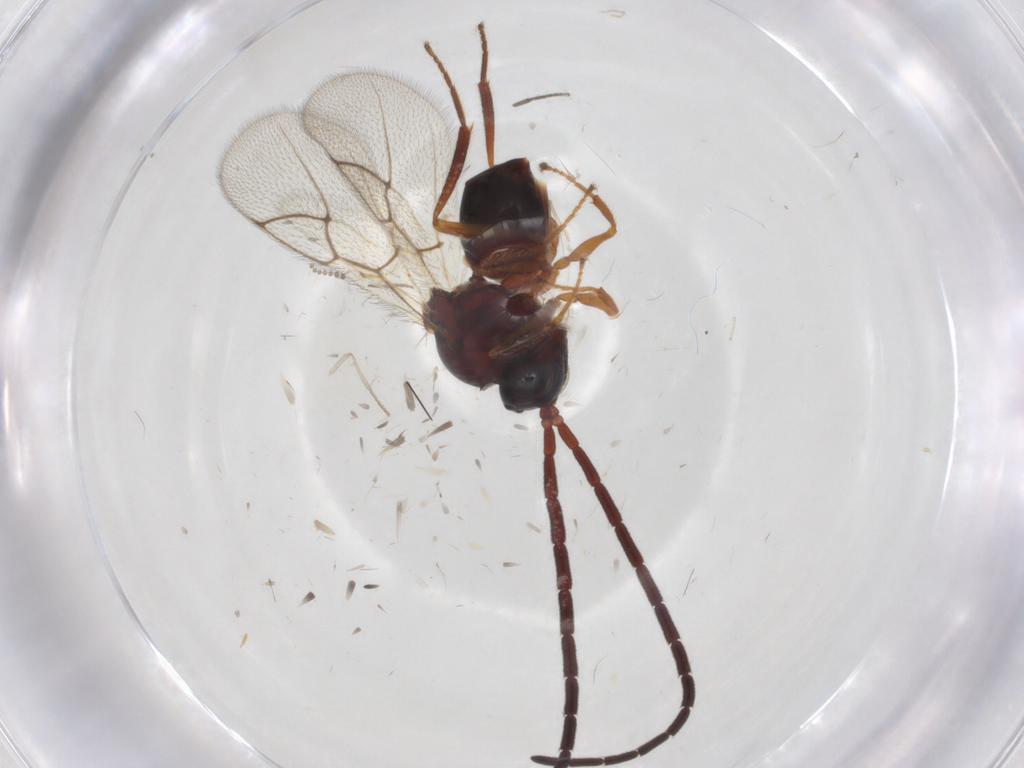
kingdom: Animalia
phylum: Arthropoda
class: Insecta
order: Hymenoptera
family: Figitidae
